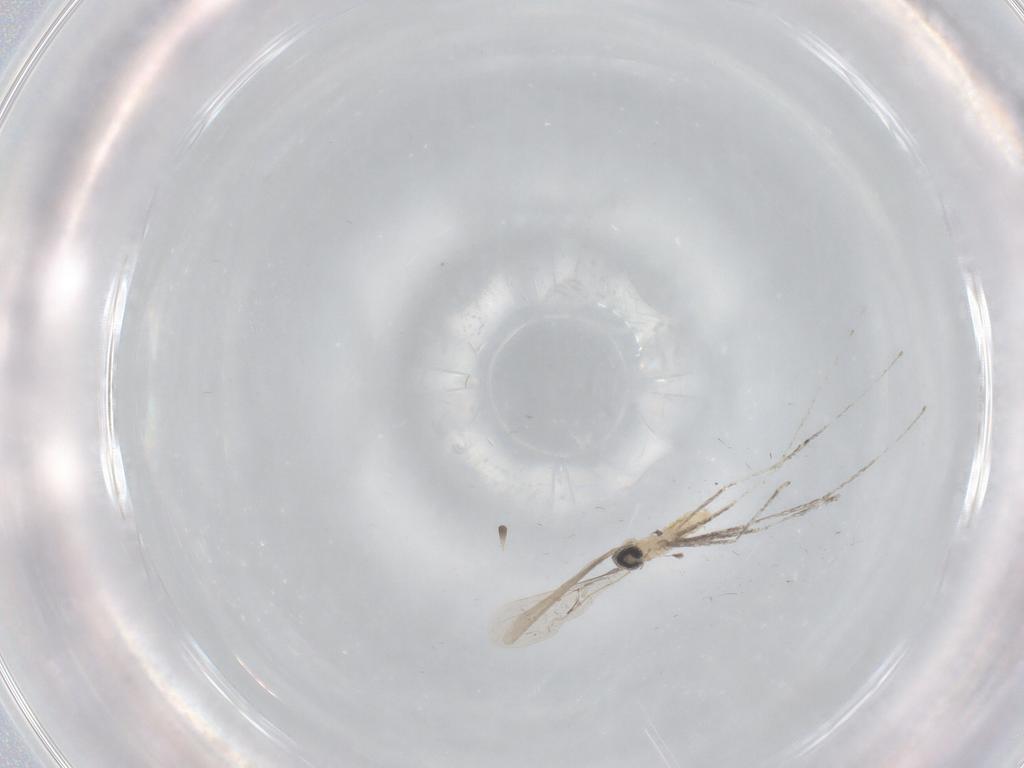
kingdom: Animalia
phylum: Arthropoda
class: Insecta
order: Diptera
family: Cecidomyiidae
